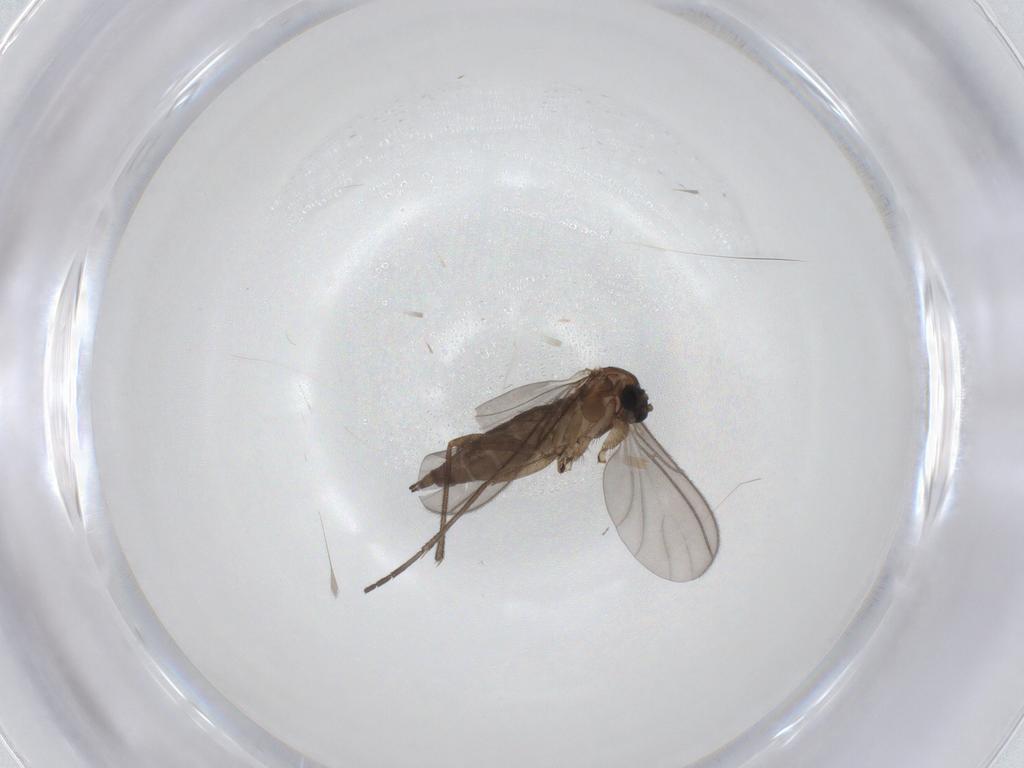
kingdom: Animalia
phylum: Arthropoda
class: Insecta
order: Diptera
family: Sciaridae
